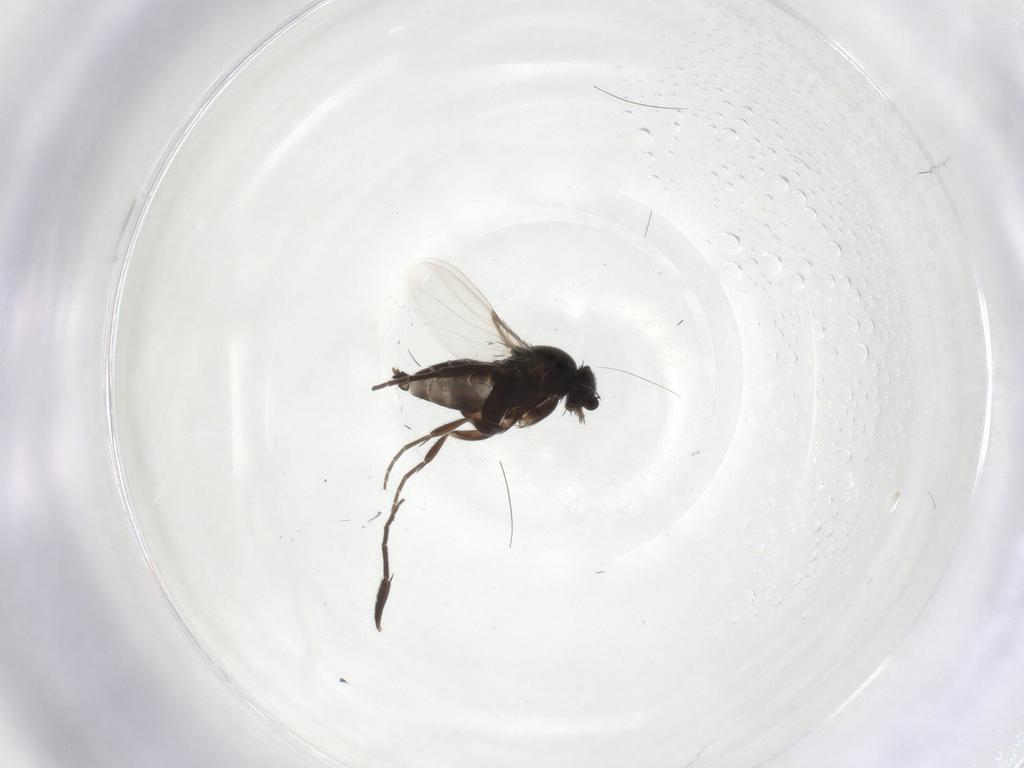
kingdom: Animalia
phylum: Arthropoda
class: Insecta
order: Diptera
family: Phoridae
